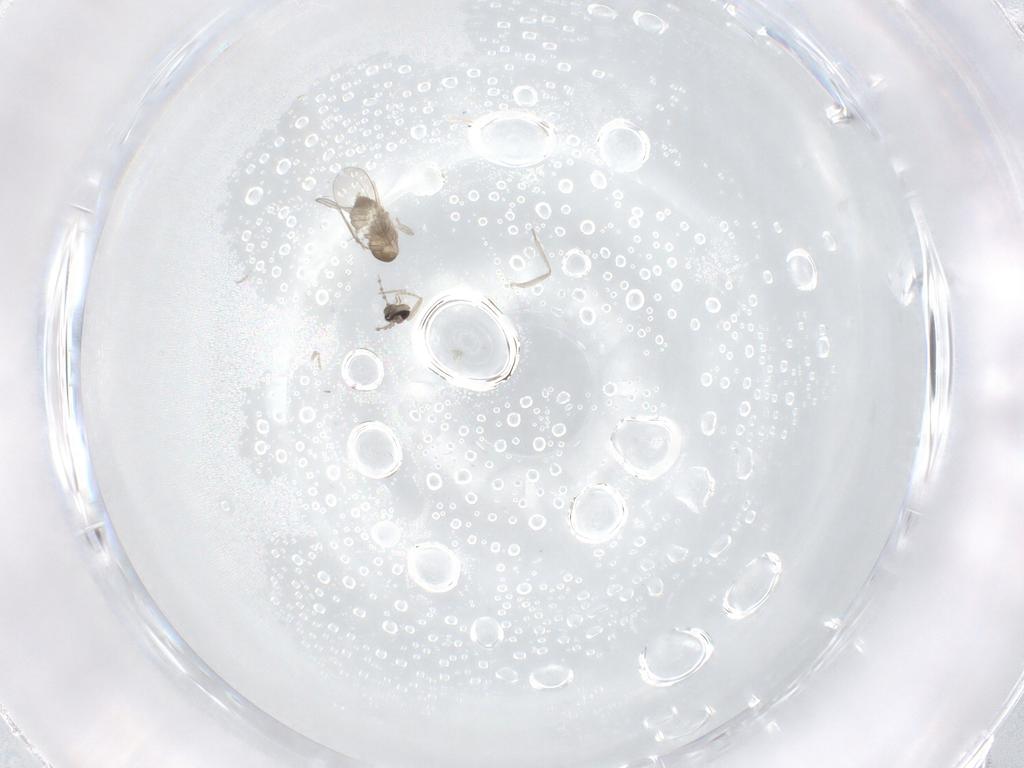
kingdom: Animalia
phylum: Arthropoda
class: Insecta
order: Diptera
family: Cecidomyiidae
